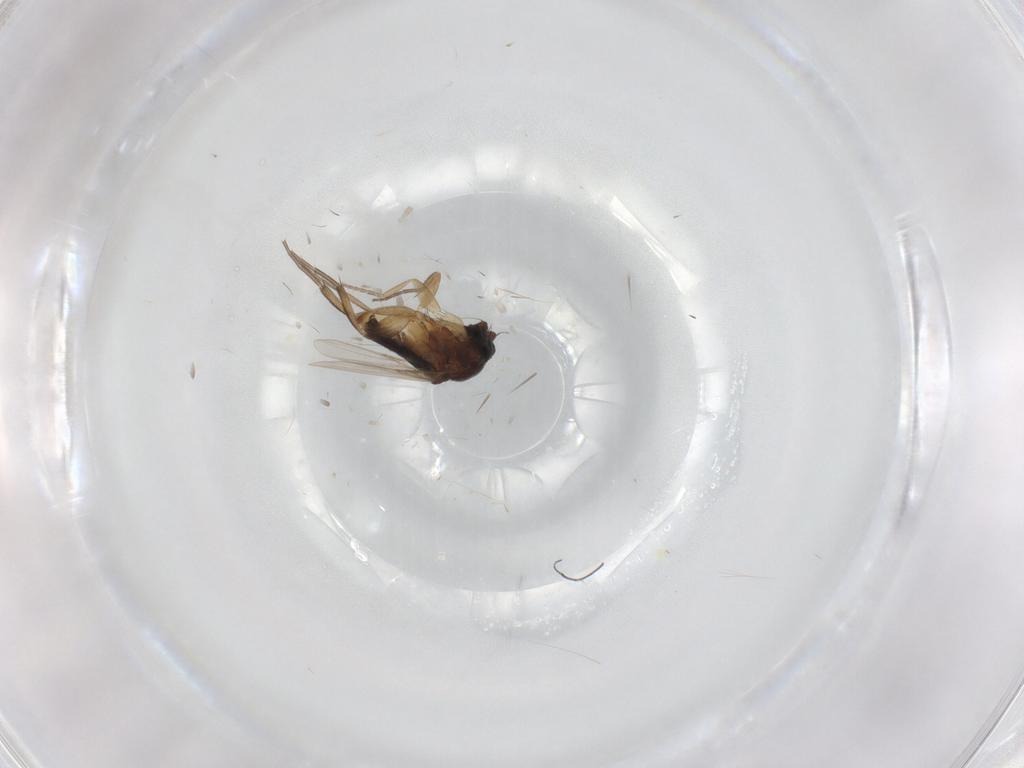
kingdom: Animalia
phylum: Arthropoda
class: Insecta
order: Diptera
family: Phoridae
